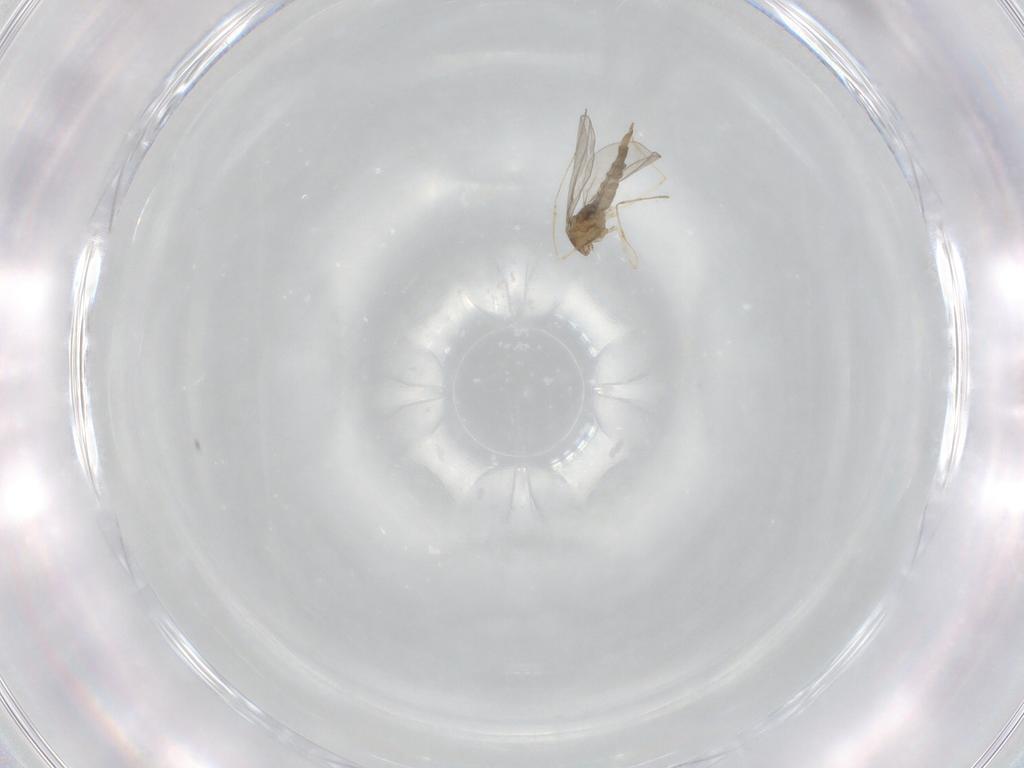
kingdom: Animalia
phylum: Arthropoda
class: Insecta
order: Diptera
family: Cecidomyiidae
